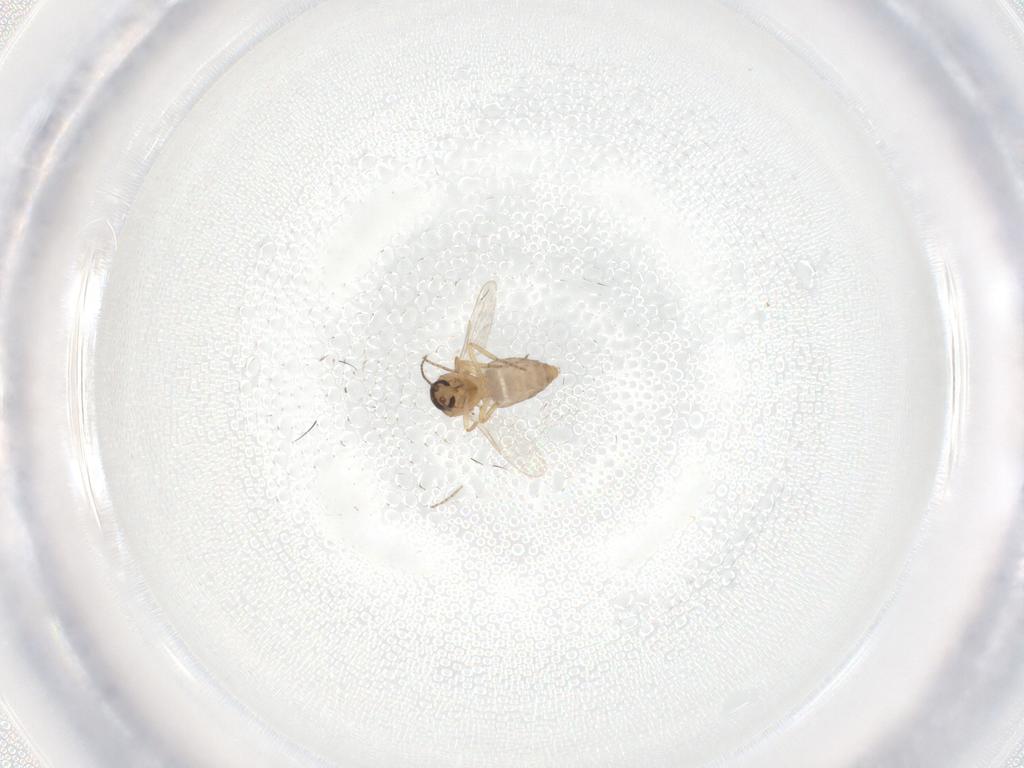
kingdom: Animalia
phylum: Arthropoda
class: Insecta
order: Diptera
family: Ceratopogonidae
